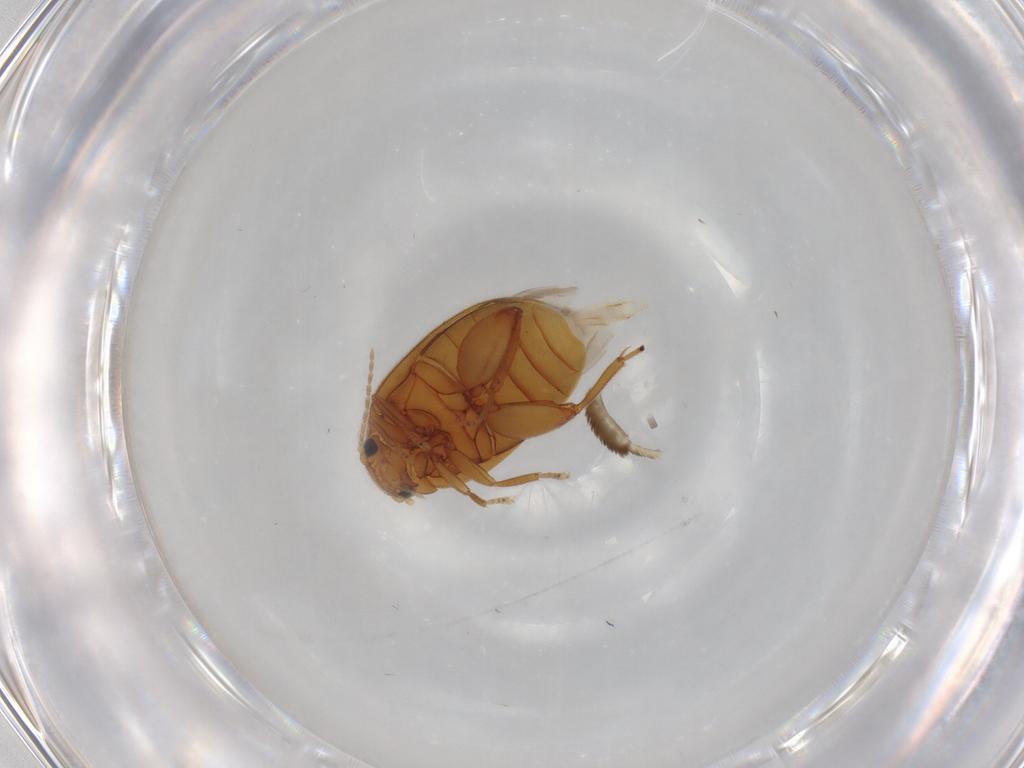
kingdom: Animalia
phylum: Arthropoda
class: Insecta
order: Coleoptera
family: Scirtidae
